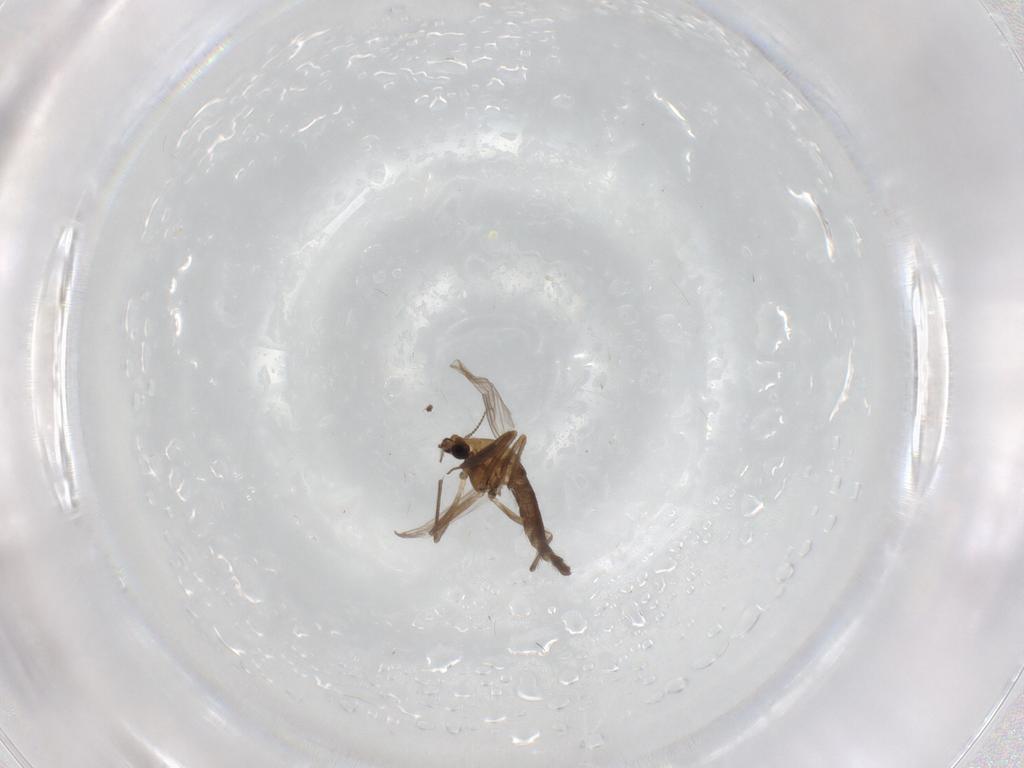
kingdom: Animalia
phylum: Arthropoda
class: Insecta
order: Diptera
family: Chironomidae
